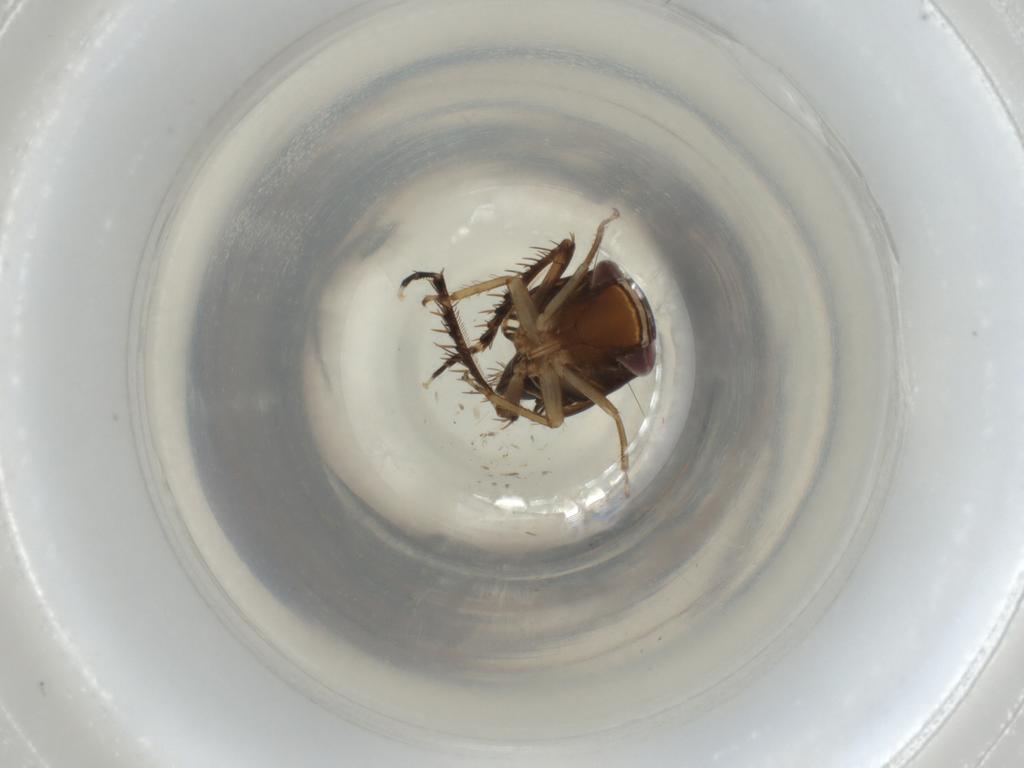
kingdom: Animalia
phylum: Arthropoda
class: Insecta
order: Hemiptera
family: Cicadellidae
